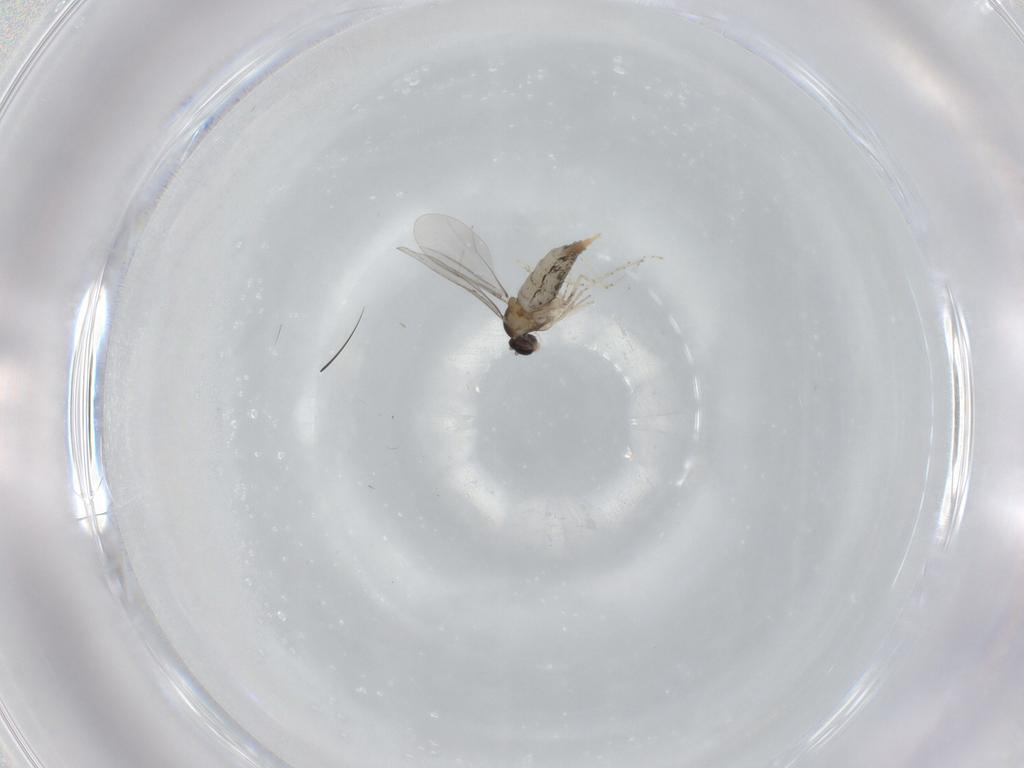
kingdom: Animalia
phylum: Arthropoda
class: Insecta
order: Diptera
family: Cecidomyiidae
